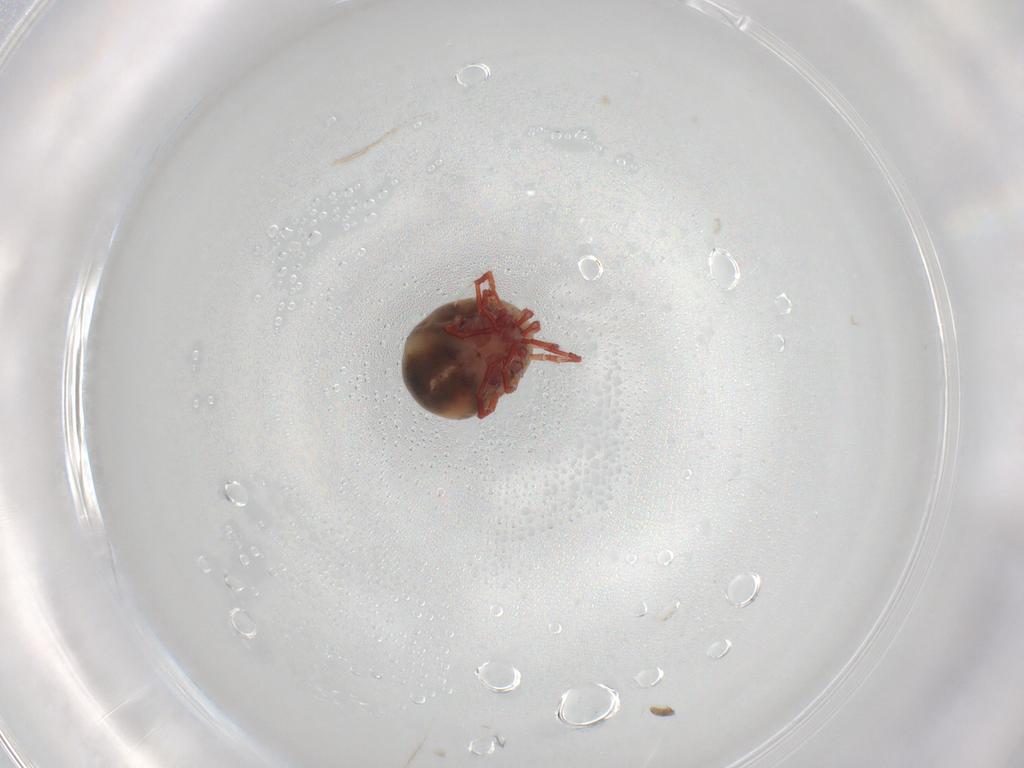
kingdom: Animalia
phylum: Arthropoda
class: Arachnida
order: Trombidiformes
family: Pionidae
